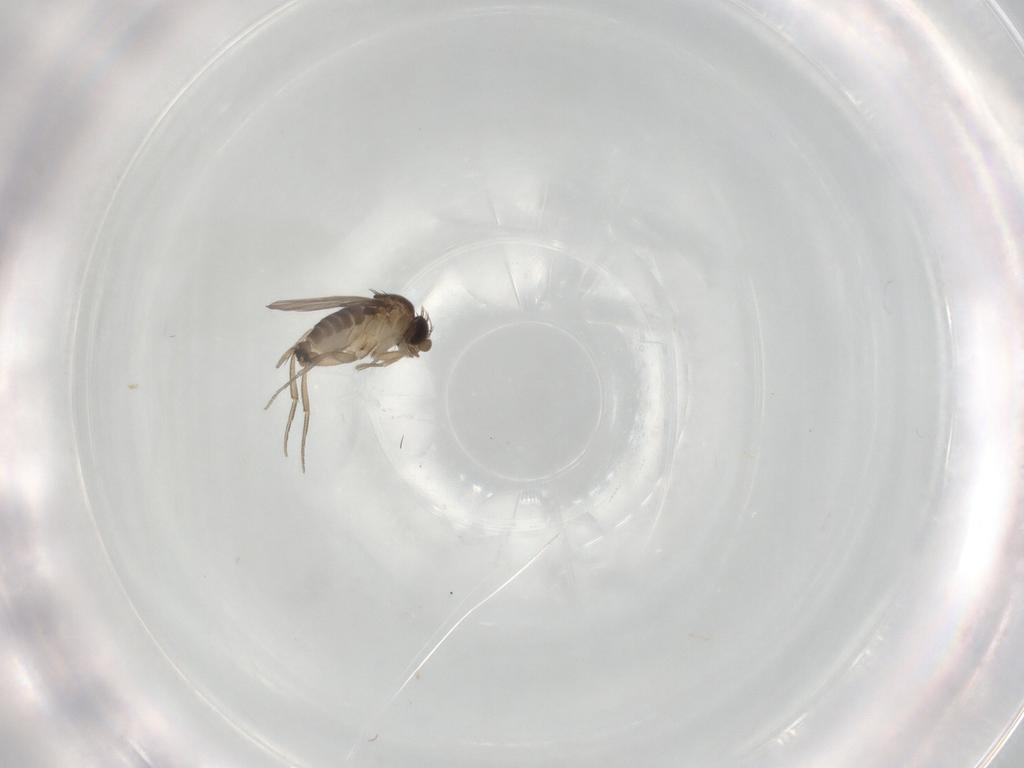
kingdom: Animalia
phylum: Arthropoda
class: Insecta
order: Diptera
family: Phoridae
